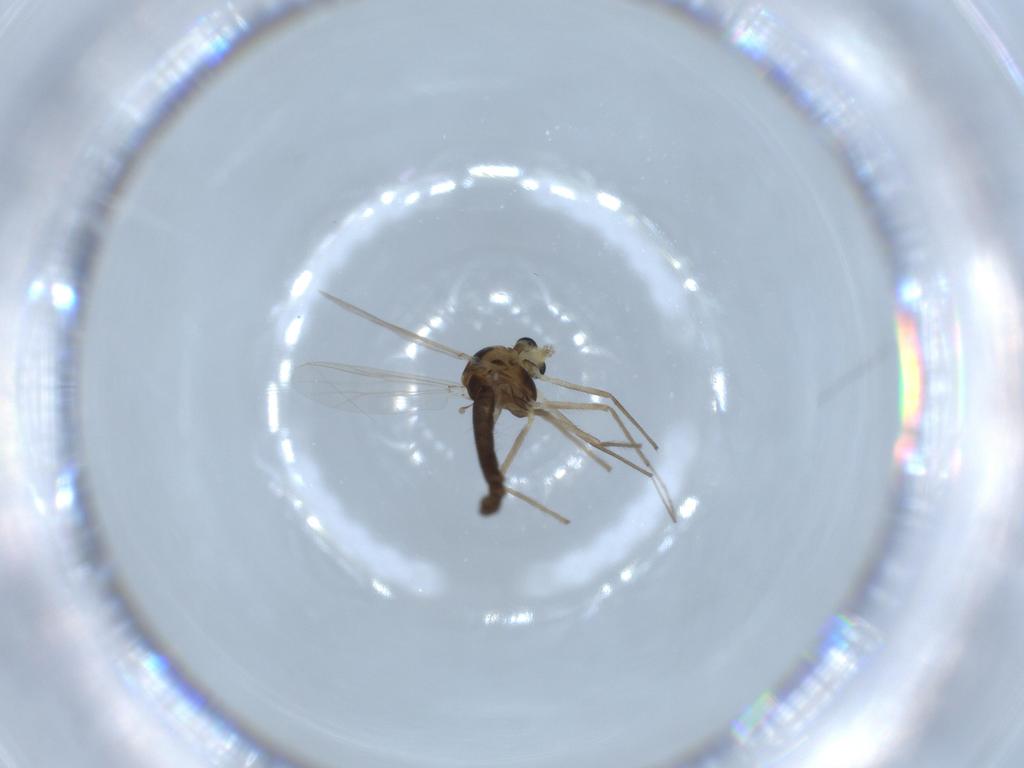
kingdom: Animalia
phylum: Arthropoda
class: Insecta
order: Diptera
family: Chironomidae
